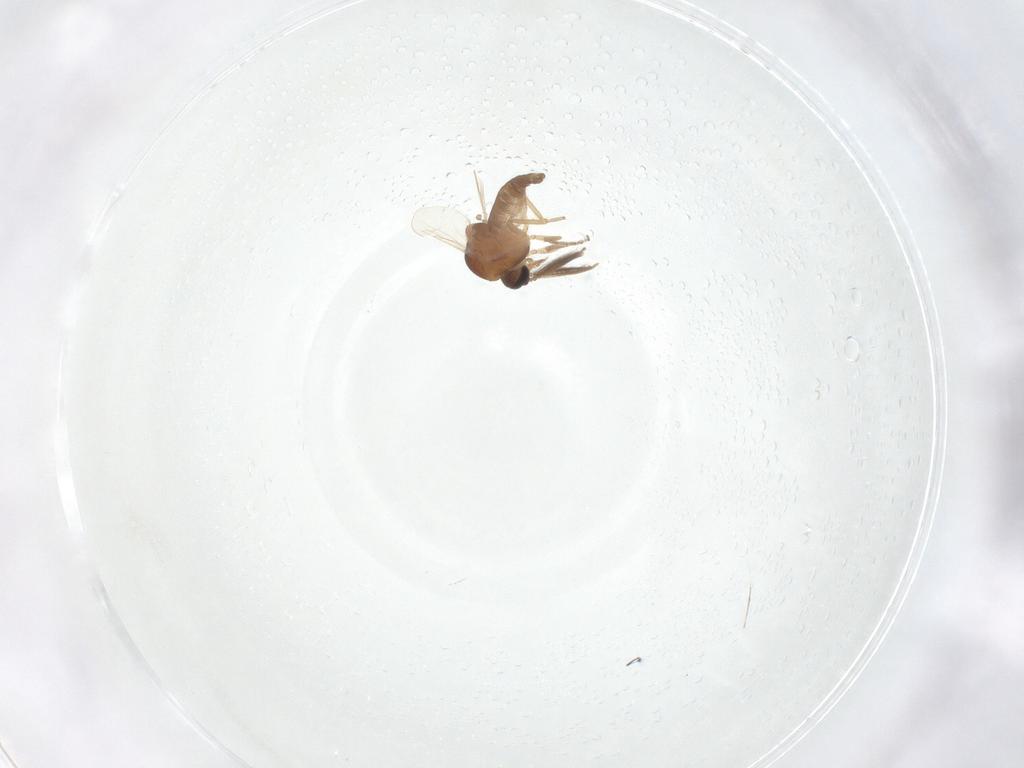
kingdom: Animalia
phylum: Arthropoda
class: Insecta
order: Diptera
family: Ceratopogonidae
